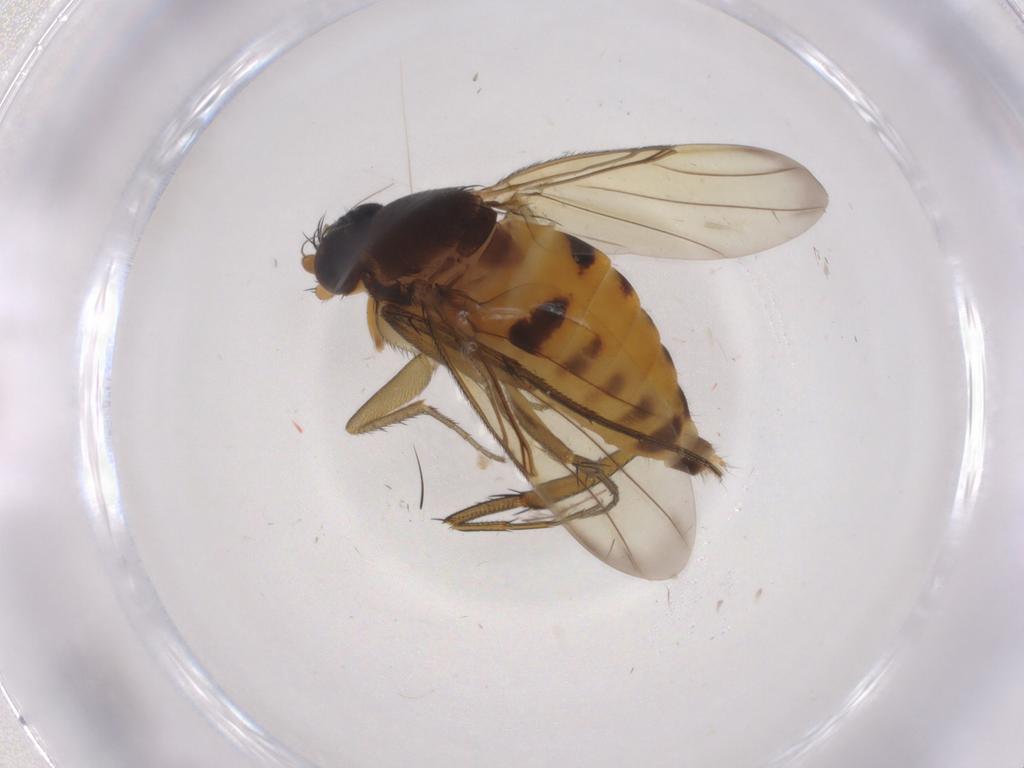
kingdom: Animalia
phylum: Arthropoda
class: Insecta
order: Diptera
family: Phoridae
